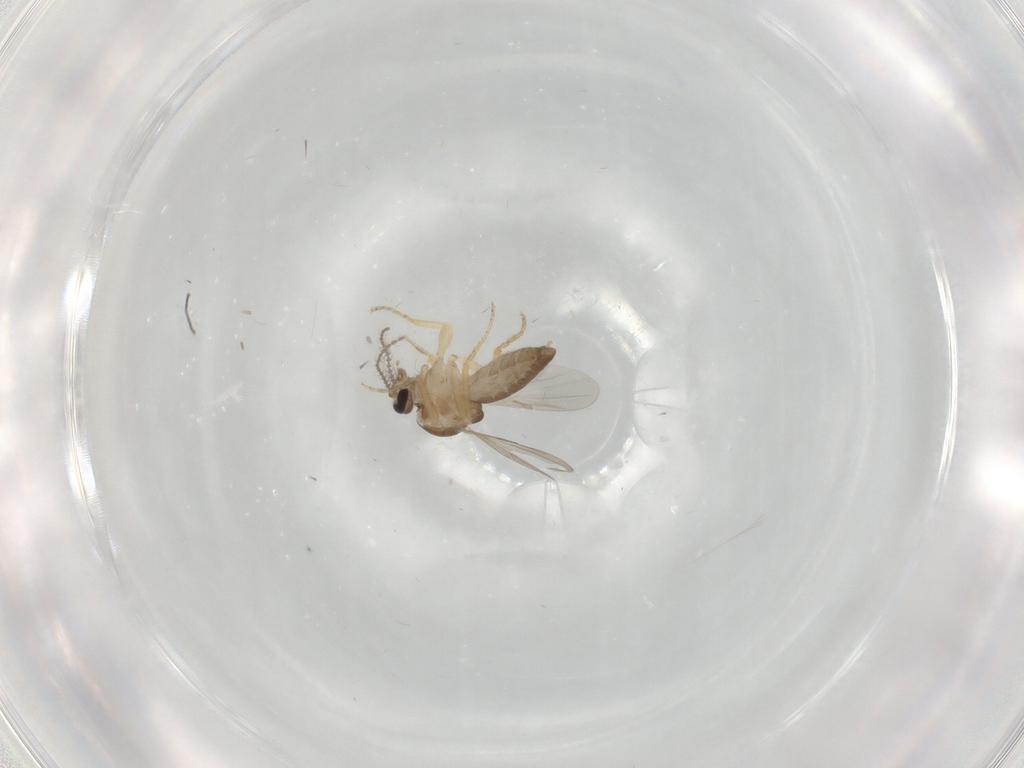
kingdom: Animalia
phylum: Arthropoda
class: Insecta
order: Diptera
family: Ceratopogonidae
